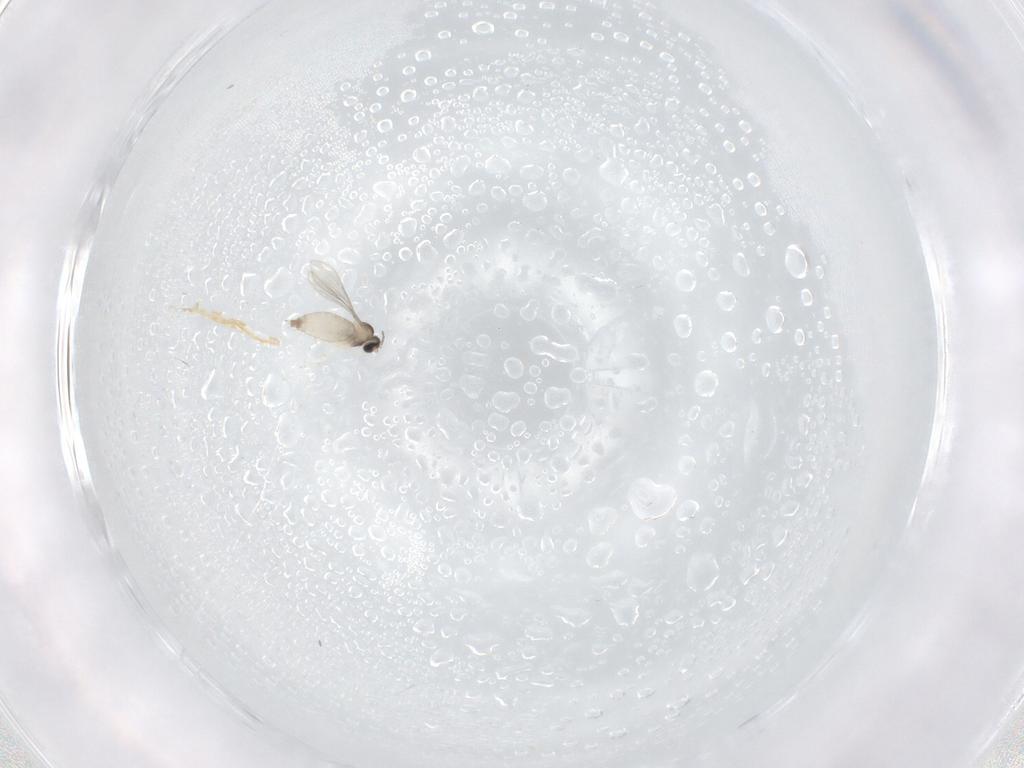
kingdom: Animalia
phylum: Arthropoda
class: Insecta
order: Diptera
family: Cecidomyiidae
